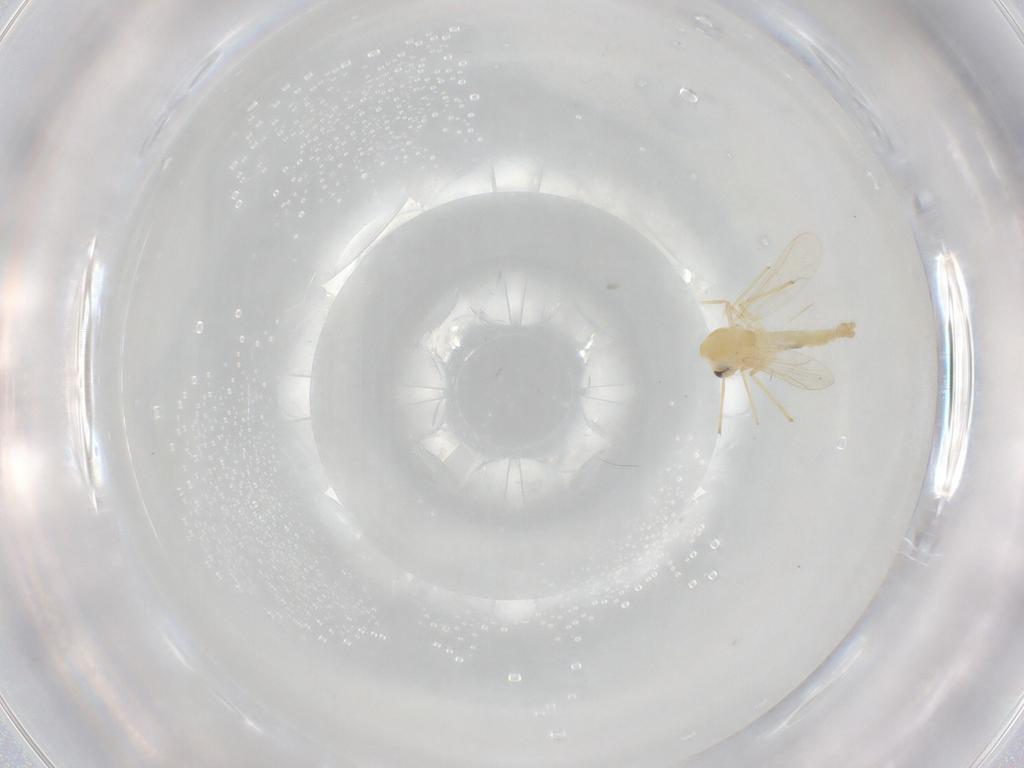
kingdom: Animalia
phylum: Arthropoda
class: Insecta
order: Diptera
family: Chironomidae
